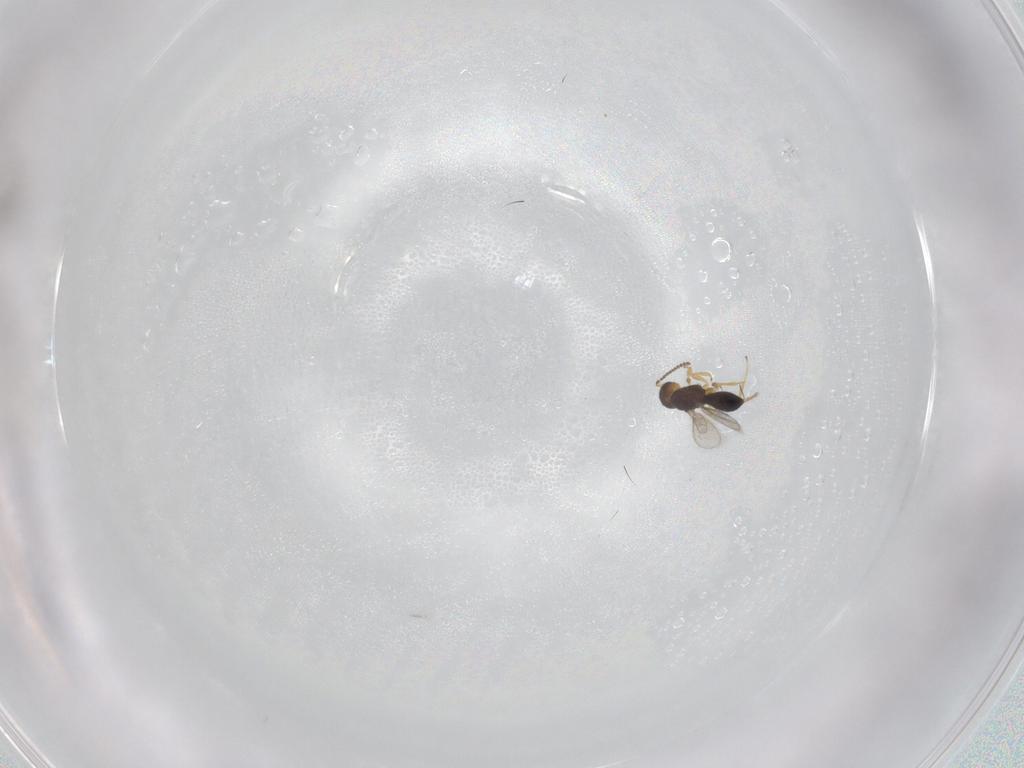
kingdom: Animalia
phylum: Arthropoda
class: Insecta
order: Hymenoptera
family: Scelionidae
